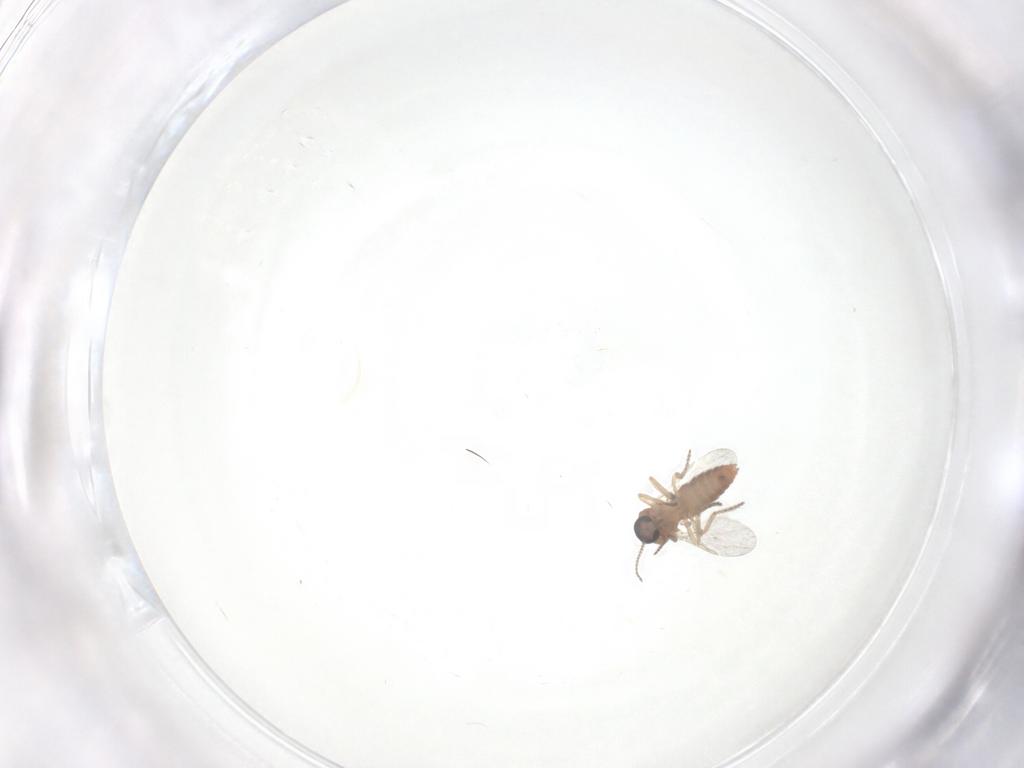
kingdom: Animalia
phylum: Arthropoda
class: Insecta
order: Diptera
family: Ceratopogonidae
